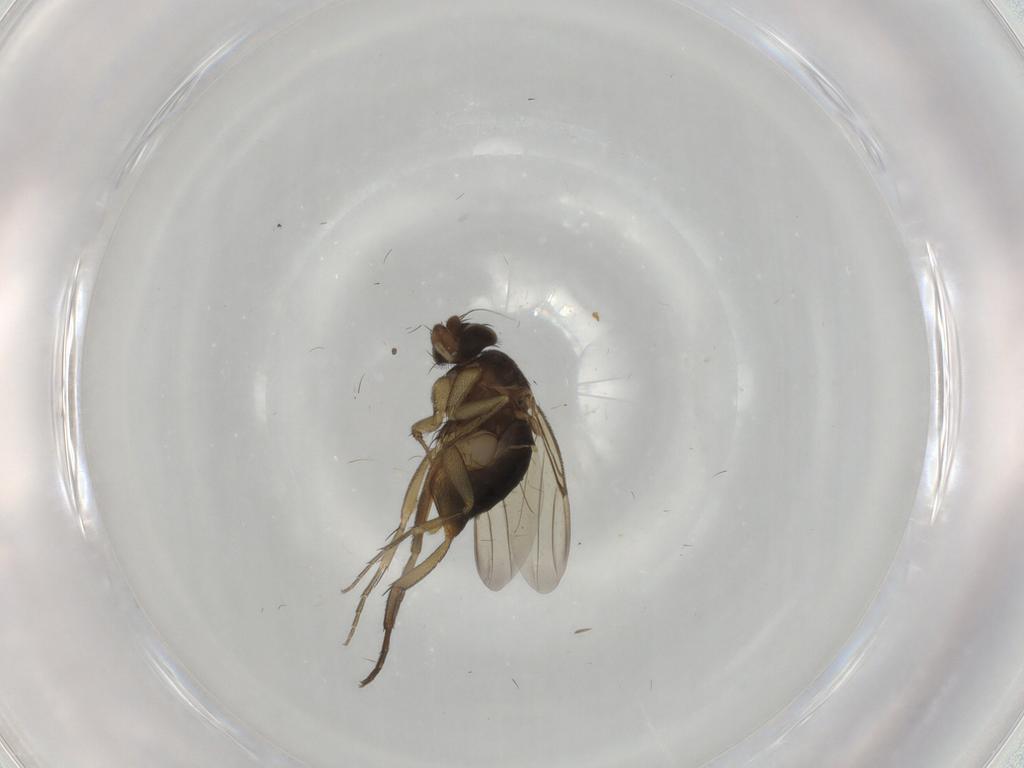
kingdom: Animalia
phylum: Arthropoda
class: Insecta
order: Diptera
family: Phoridae
